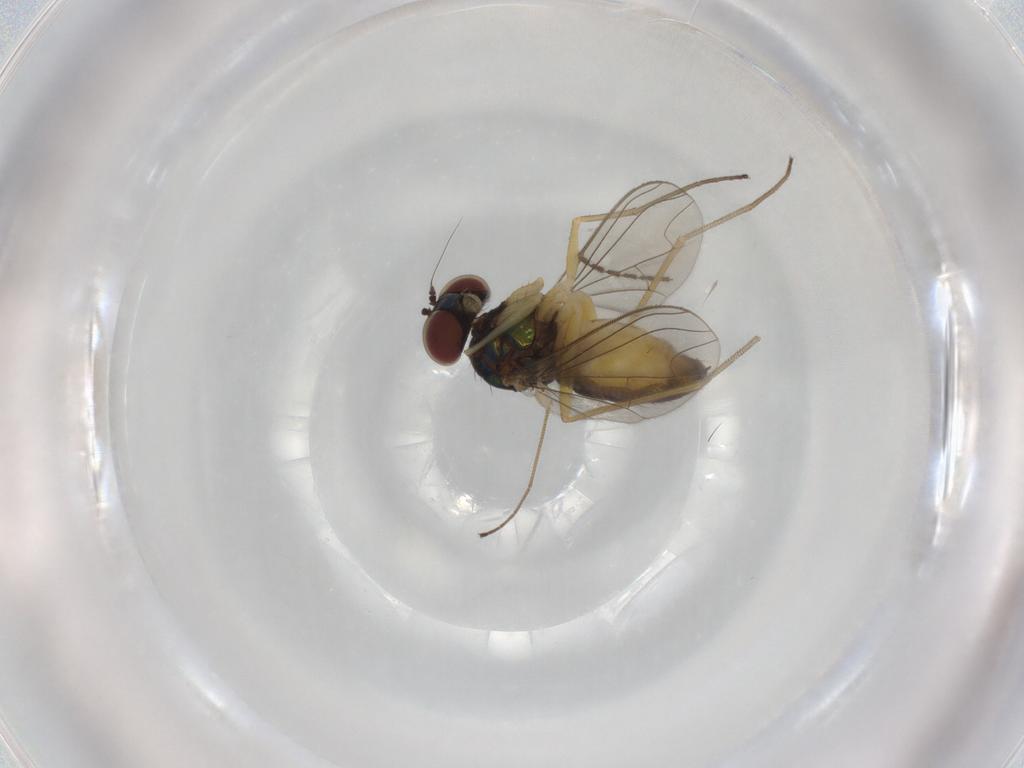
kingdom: Animalia
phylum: Arthropoda
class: Insecta
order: Diptera
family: Dolichopodidae
